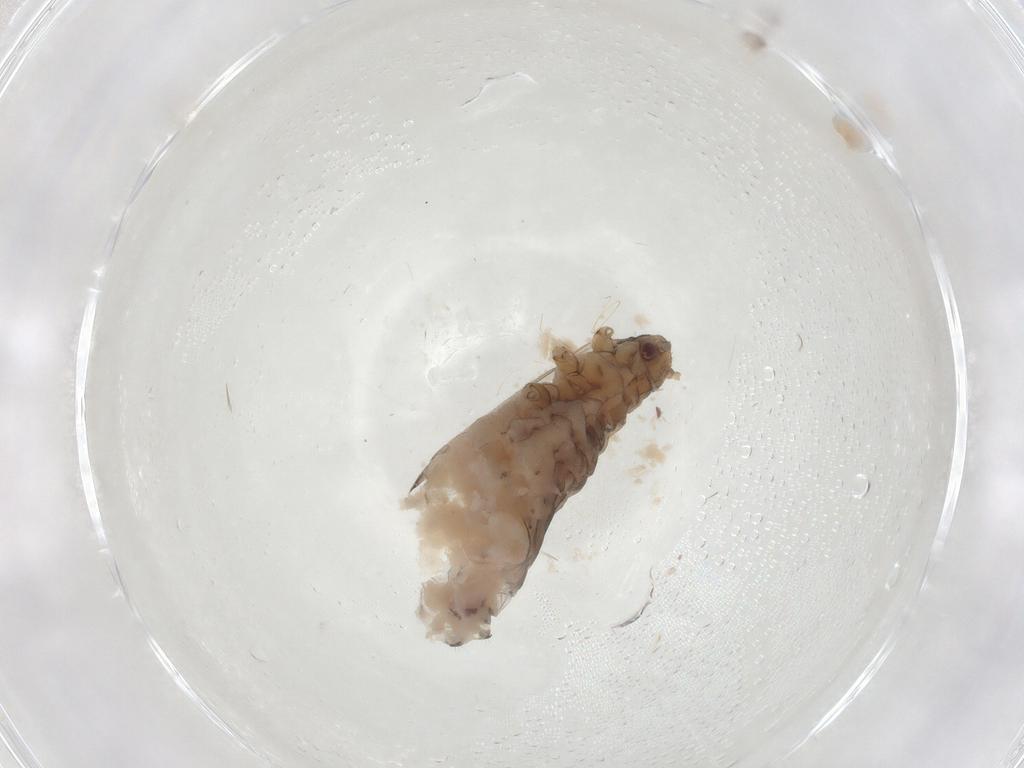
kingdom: Animalia
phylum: Arthropoda
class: Insecta
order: Hemiptera
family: Aphididae
